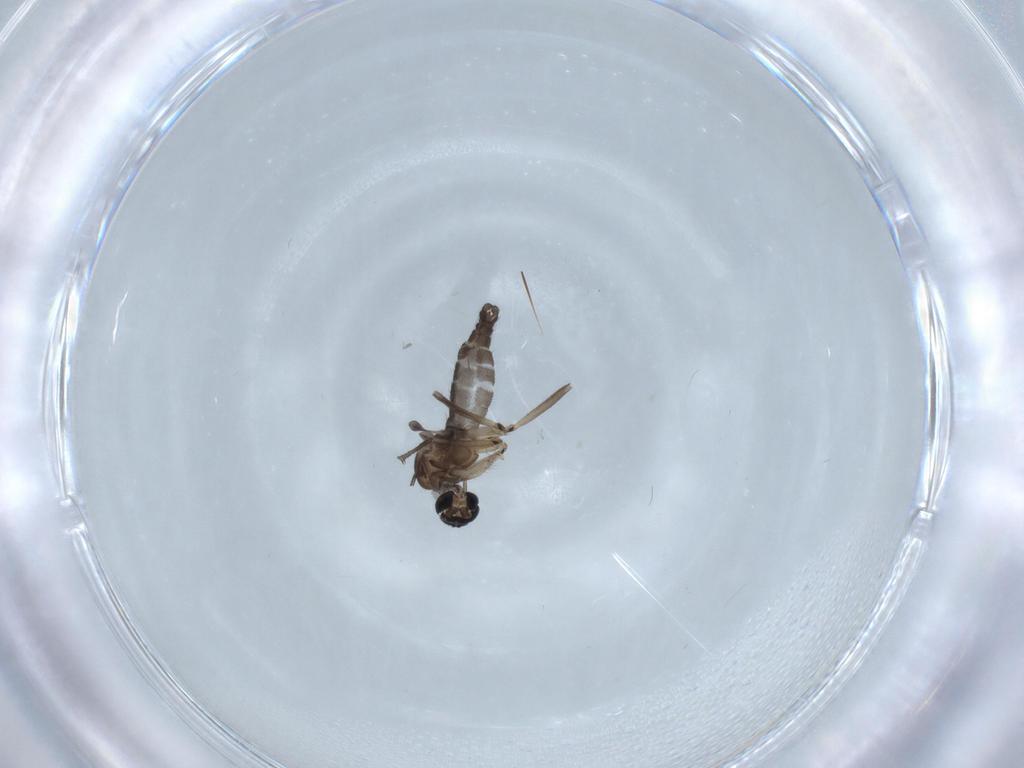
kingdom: Animalia
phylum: Arthropoda
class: Insecta
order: Diptera
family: Sciaridae
